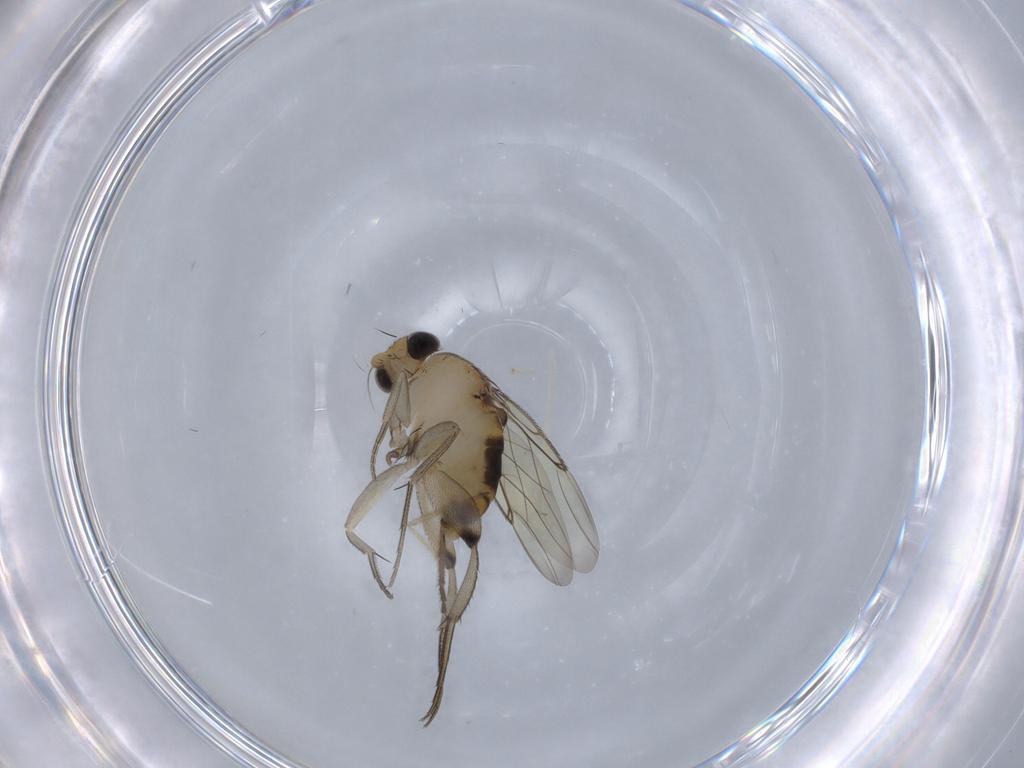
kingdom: Animalia
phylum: Arthropoda
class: Insecta
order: Diptera
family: Phoridae
